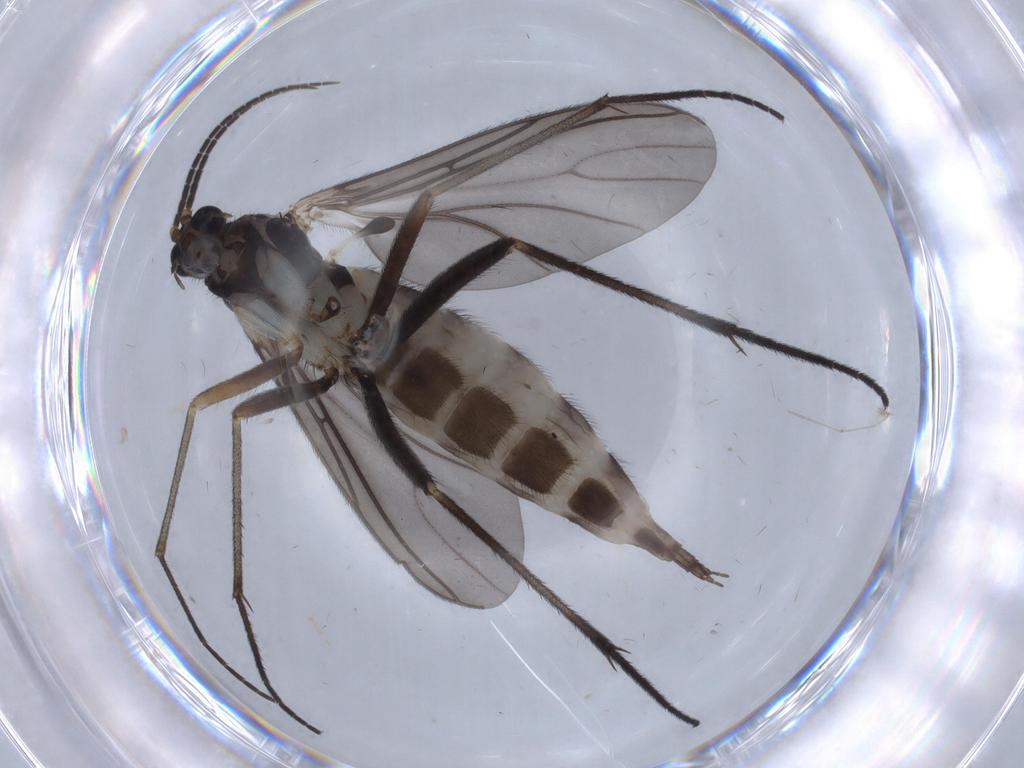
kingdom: Animalia
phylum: Arthropoda
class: Insecta
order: Diptera
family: Sciaridae
